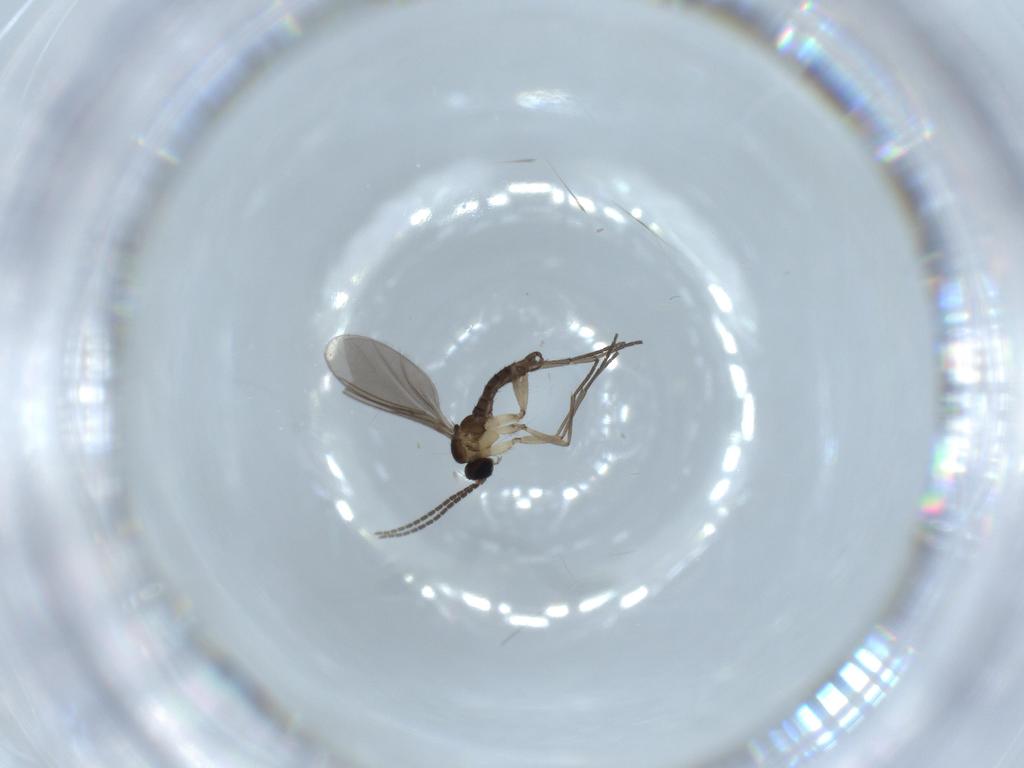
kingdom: Animalia
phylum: Arthropoda
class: Insecta
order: Diptera
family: Sciaridae
